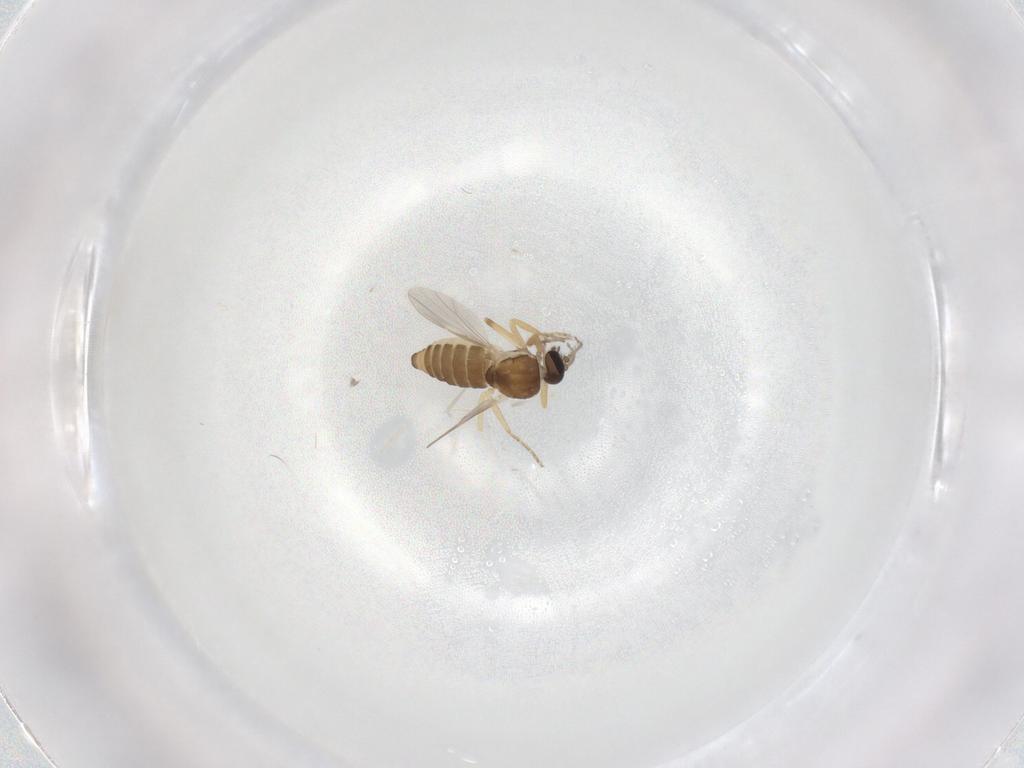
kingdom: Animalia
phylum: Arthropoda
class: Insecta
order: Diptera
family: Ceratopogonidae
